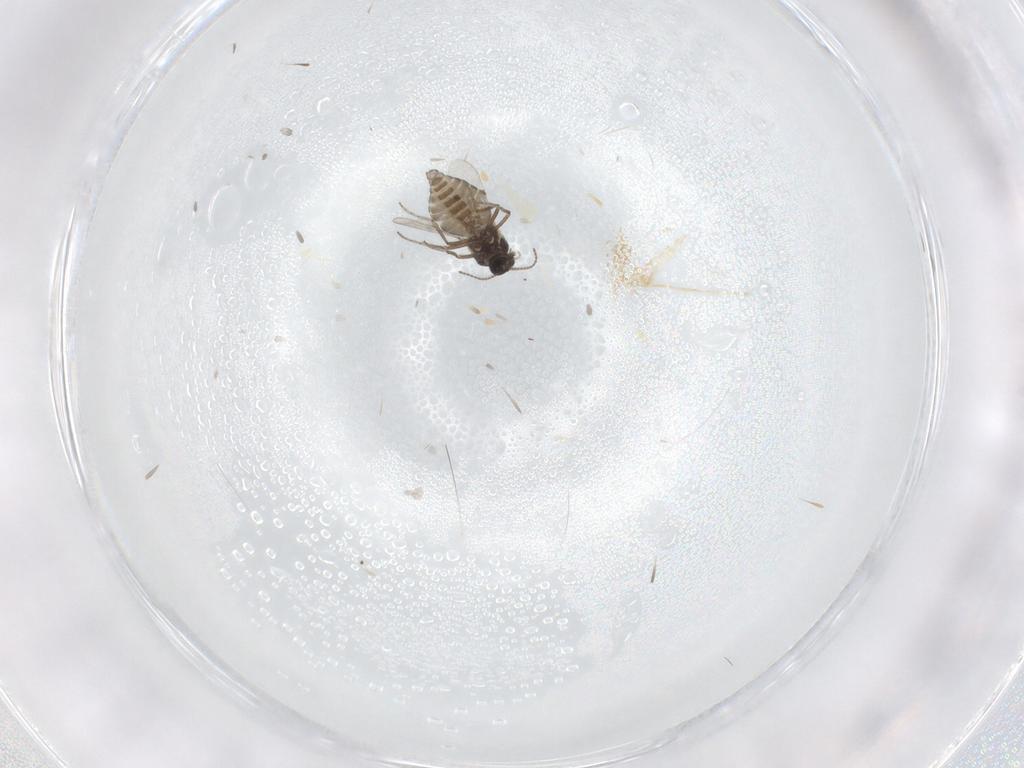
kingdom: Animalia
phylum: Arthropoda
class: Insecta
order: Diptera
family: Ceratopogonidae
